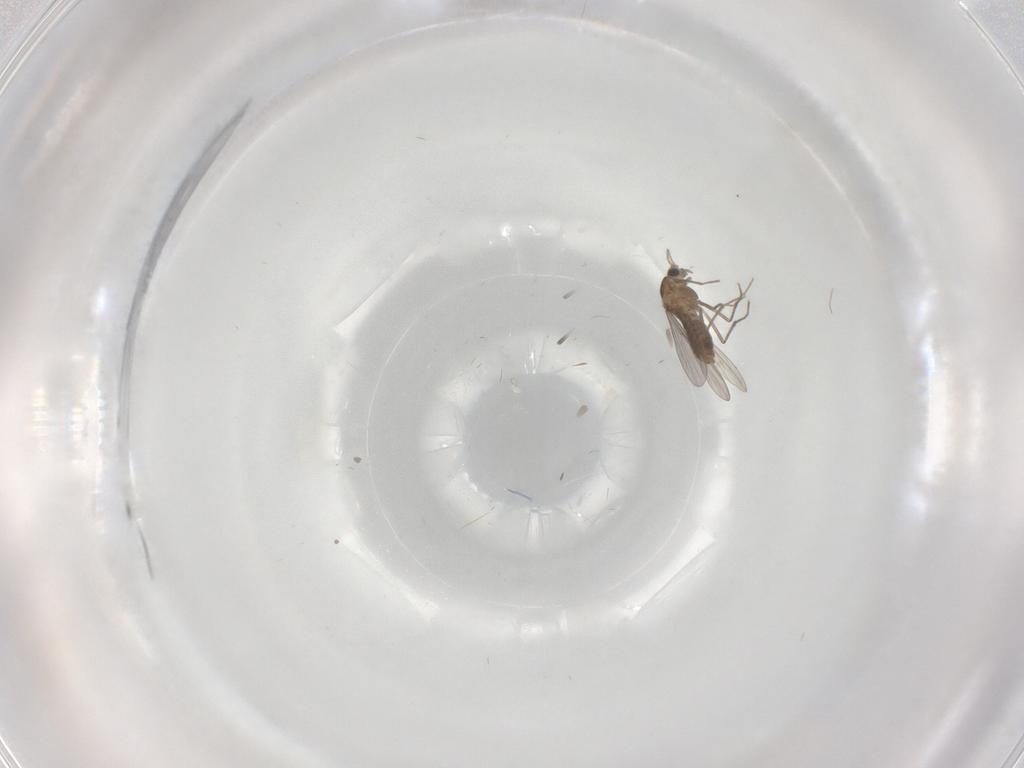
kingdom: Animalia
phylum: Arthropoda
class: Insecta
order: Diptera
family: Chironomidae
